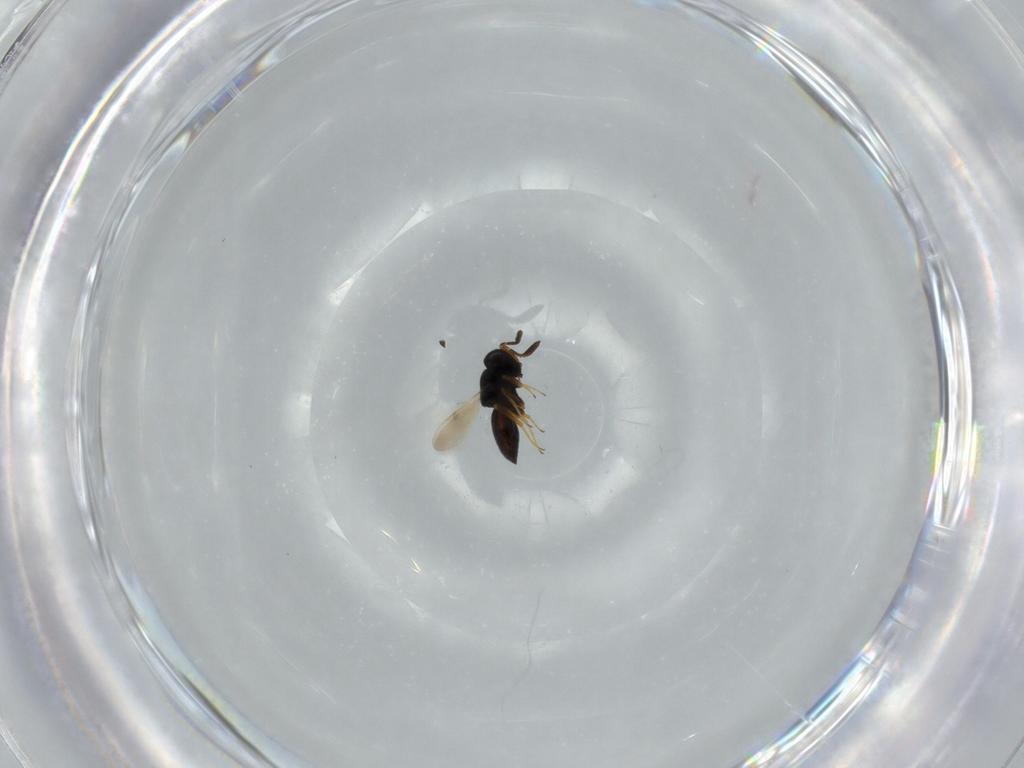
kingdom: Animalia
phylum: Arthropoda
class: Insecta
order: Hymenoptera
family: Scelionidae
